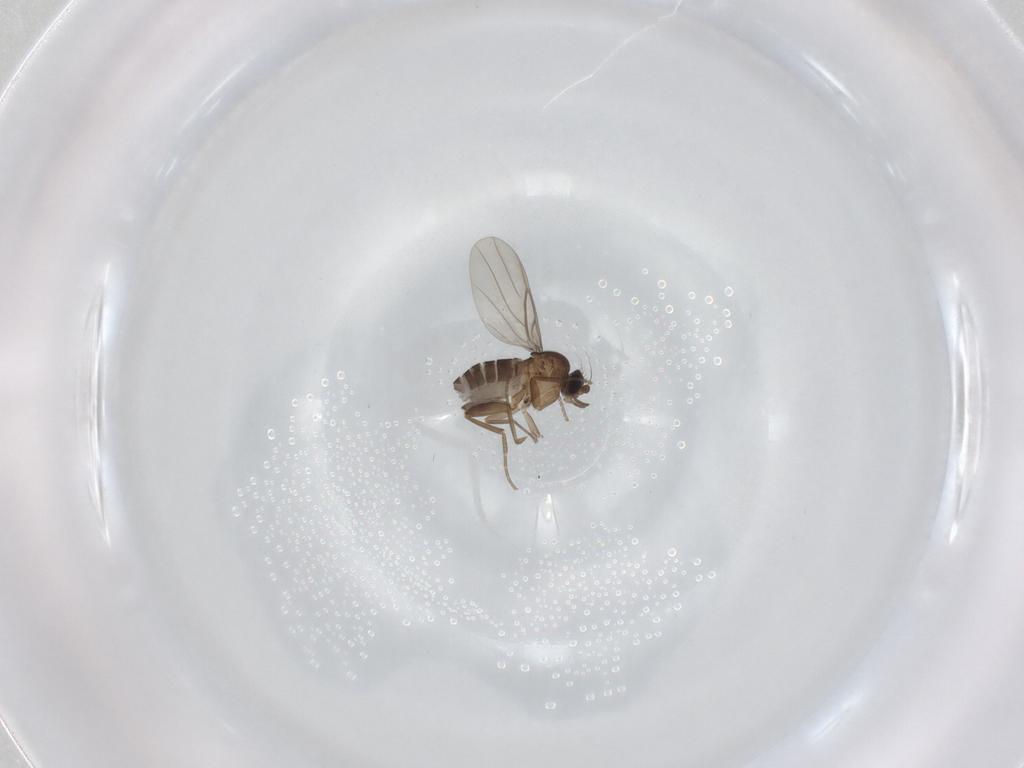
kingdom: Animalia
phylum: Arthropoda
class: Insecta
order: Diptera
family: Phoridae
